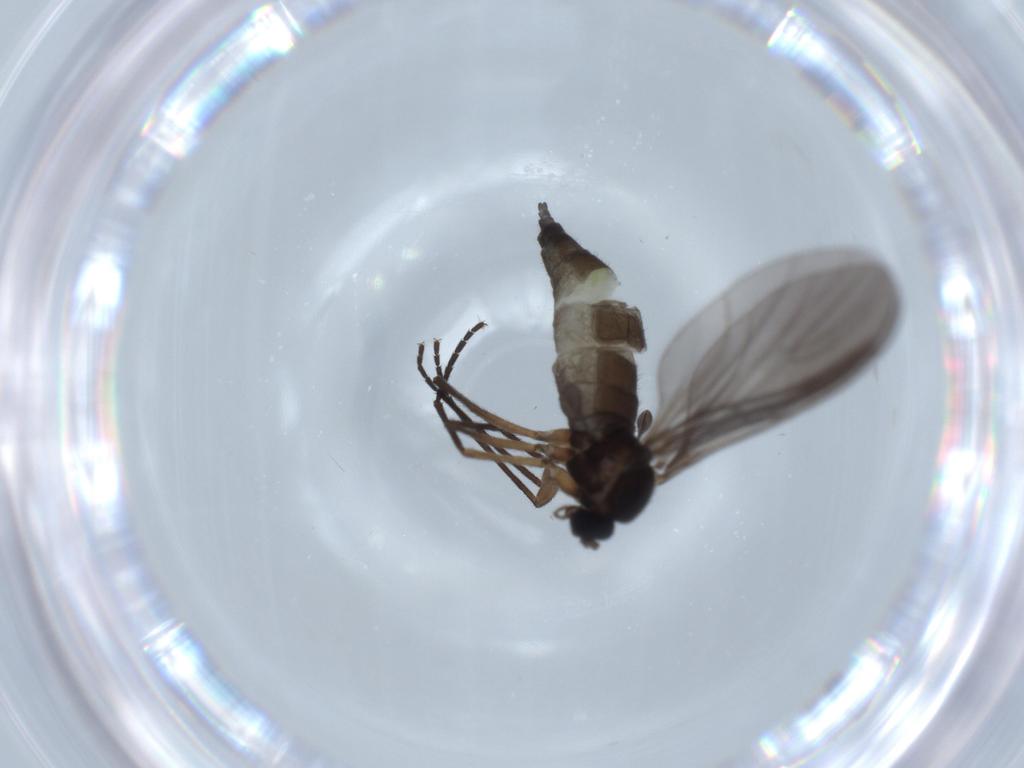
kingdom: Animalia
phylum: Arthropoda
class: Insecta
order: Diptera
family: Sciaridae
